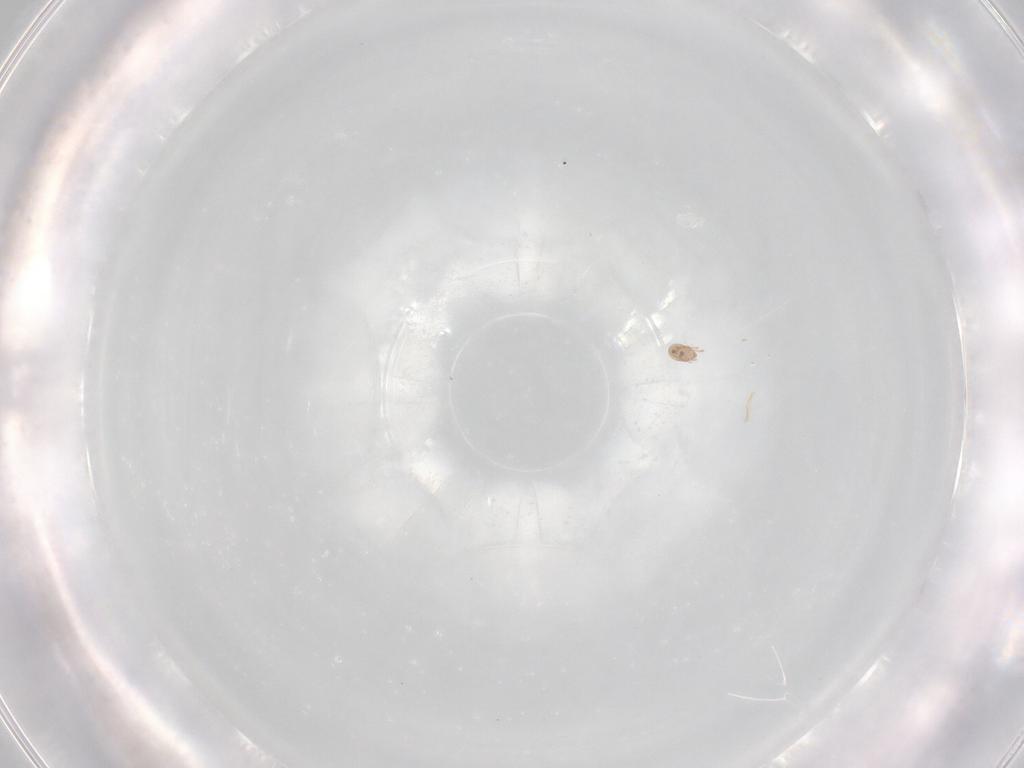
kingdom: Animalia
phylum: Arthropoda
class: Arachnida
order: Sarcoptiformes
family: Eremaeidae
